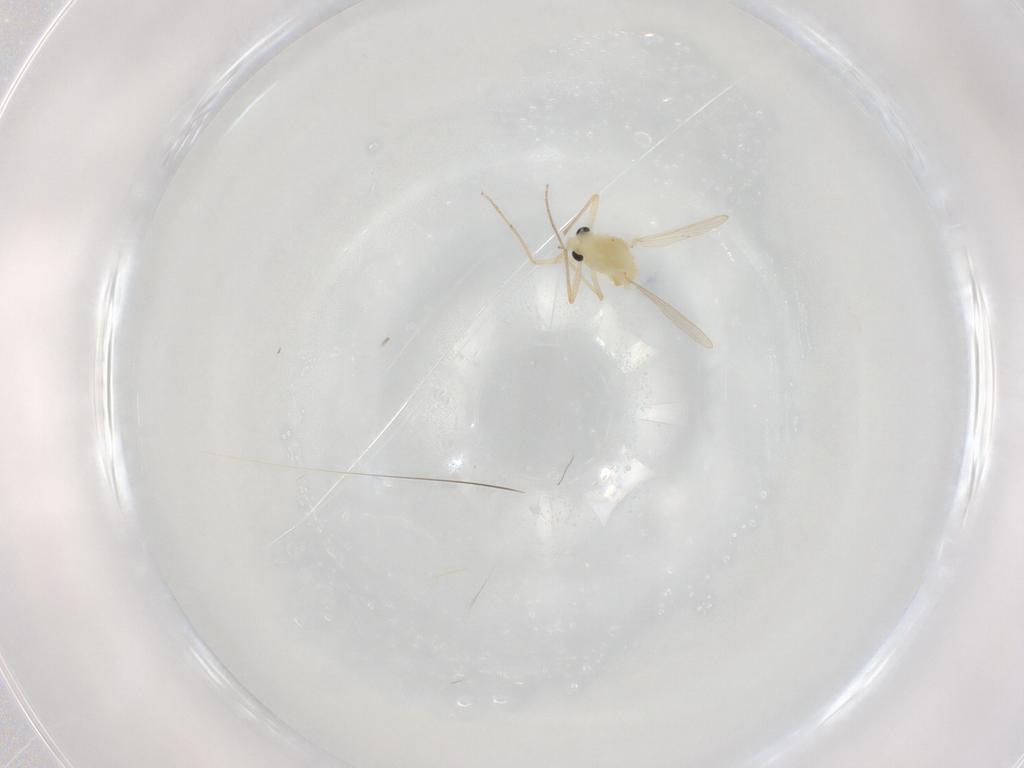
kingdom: Animalia
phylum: Arthropoda
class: Insecta
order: Diptera
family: Chironomidae
